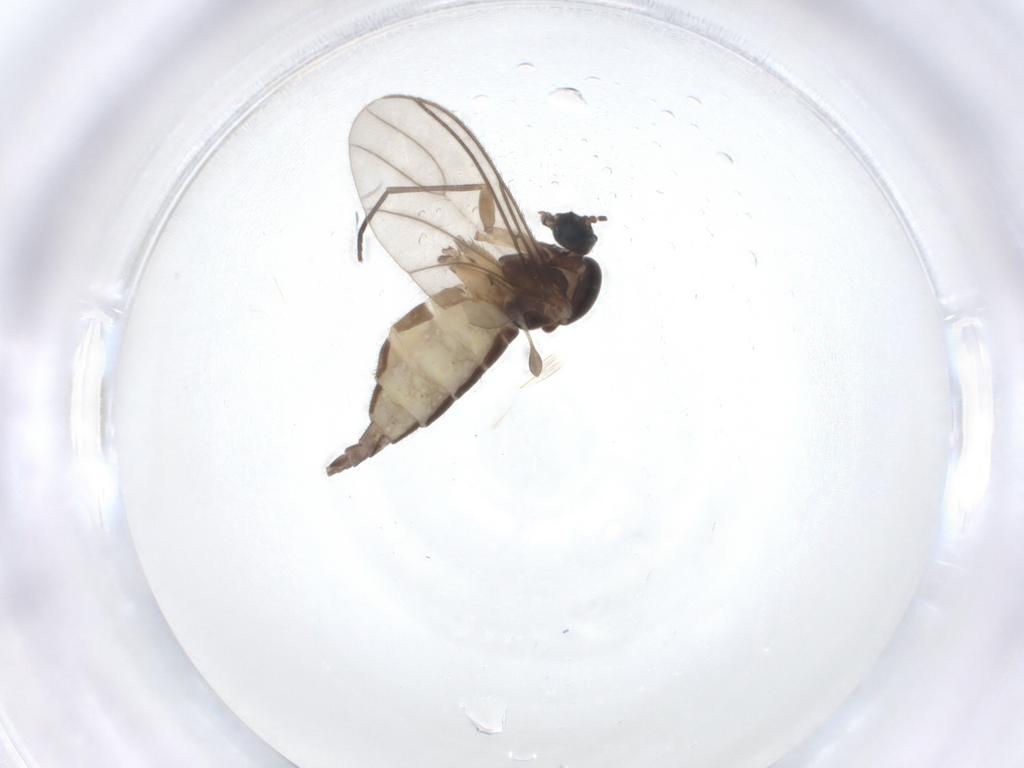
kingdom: Animalia
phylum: Arthropoda
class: Insecta
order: Diptera
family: Sciaridae
